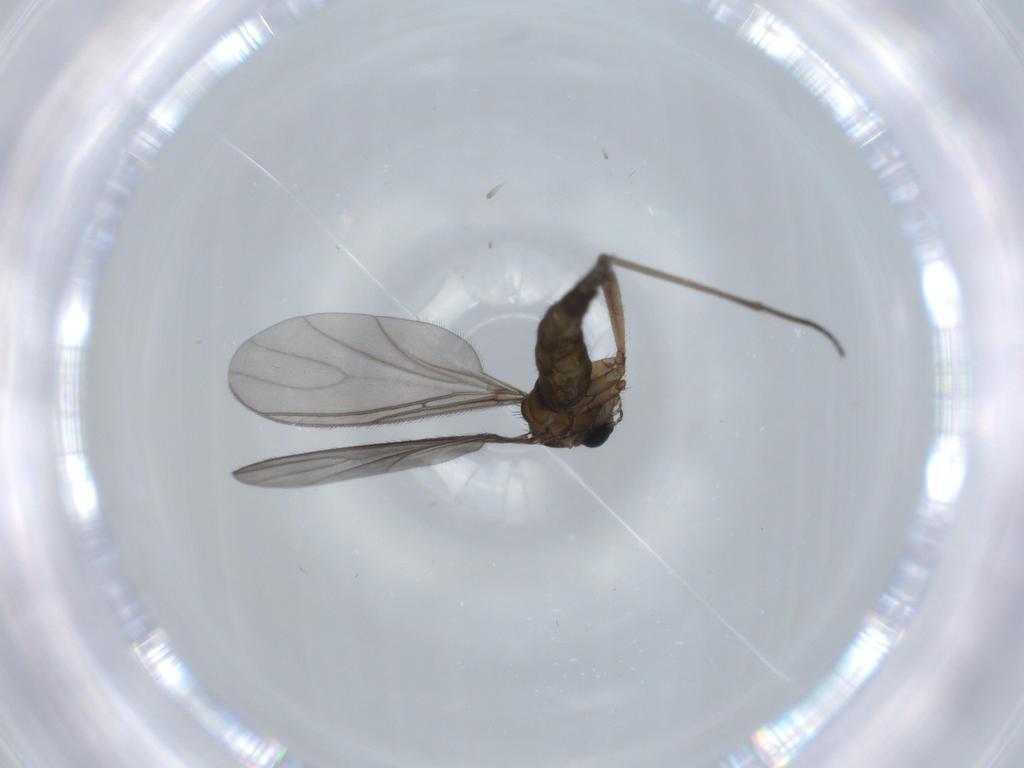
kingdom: Animalia
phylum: Arthropoda
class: Insecta
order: Diptera
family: Sciaridae
